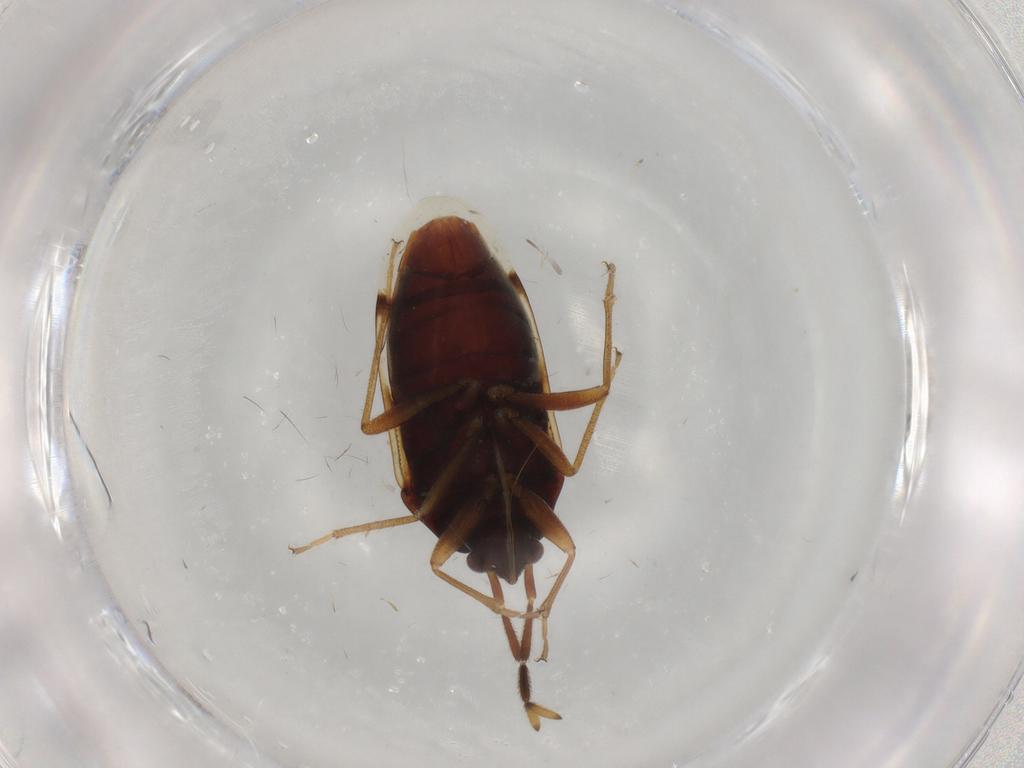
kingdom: Animalia
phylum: Arthropoda
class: Insecta
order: Hemiptera
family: Rhyparochromidae
